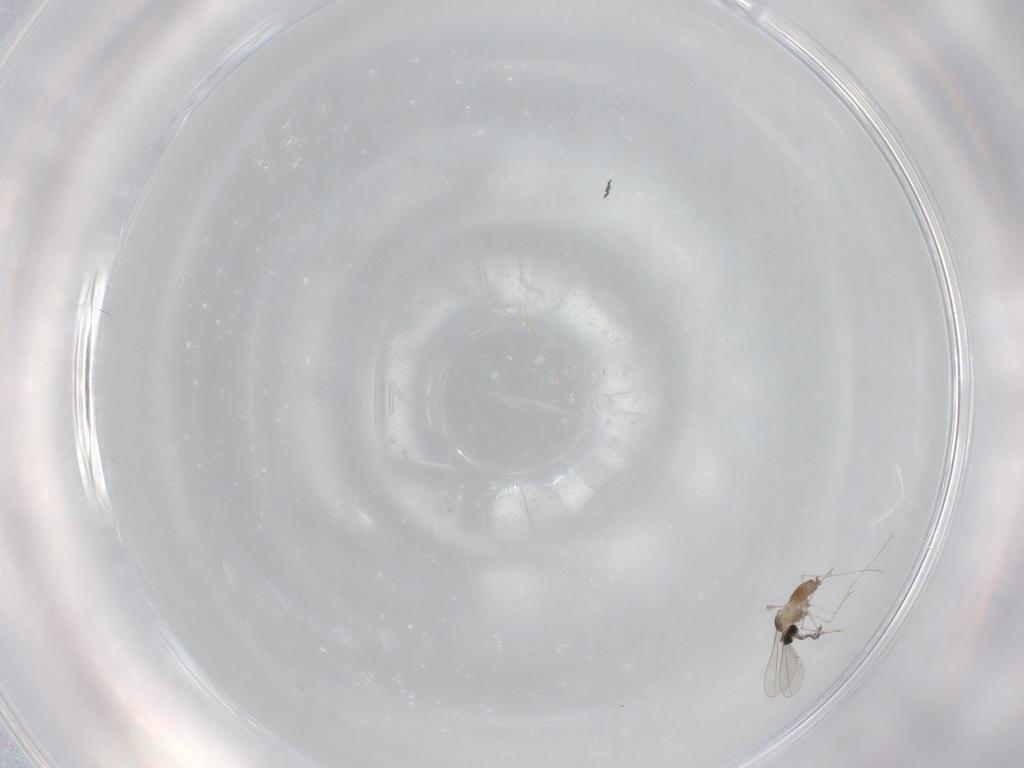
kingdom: Animalia
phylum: Arthropoda
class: Insecta
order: Diptera
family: Cecidomyiidae
